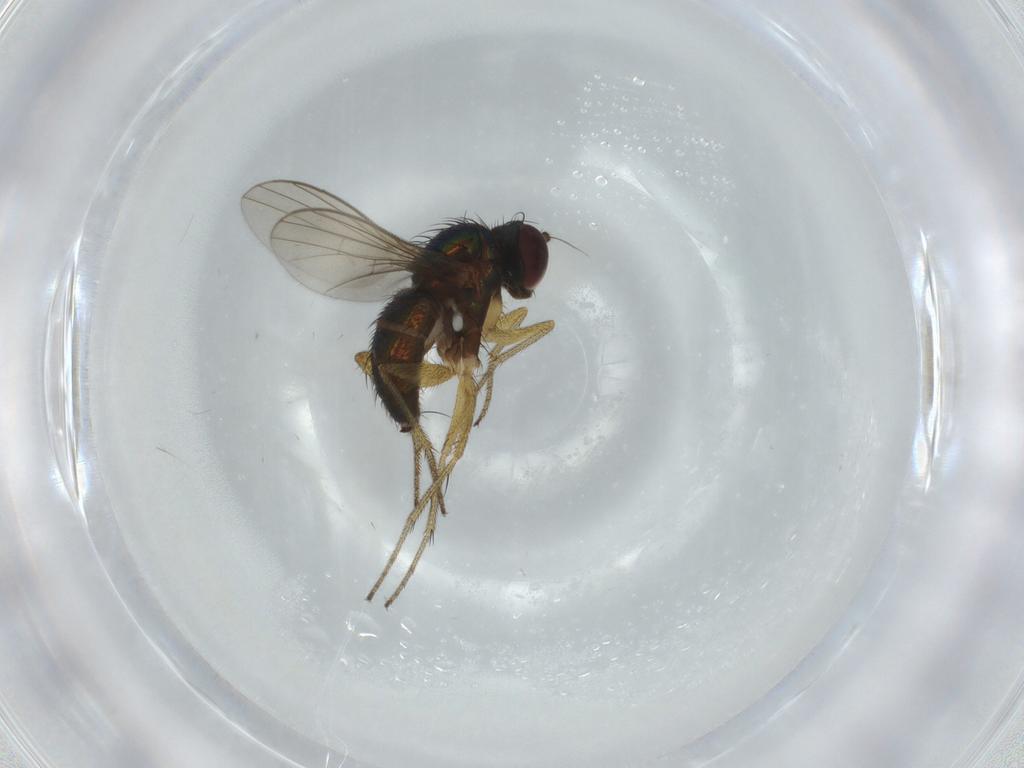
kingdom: Animalia
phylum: Arthropoda
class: Insecta
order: Diptera
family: Dolichopodidae
